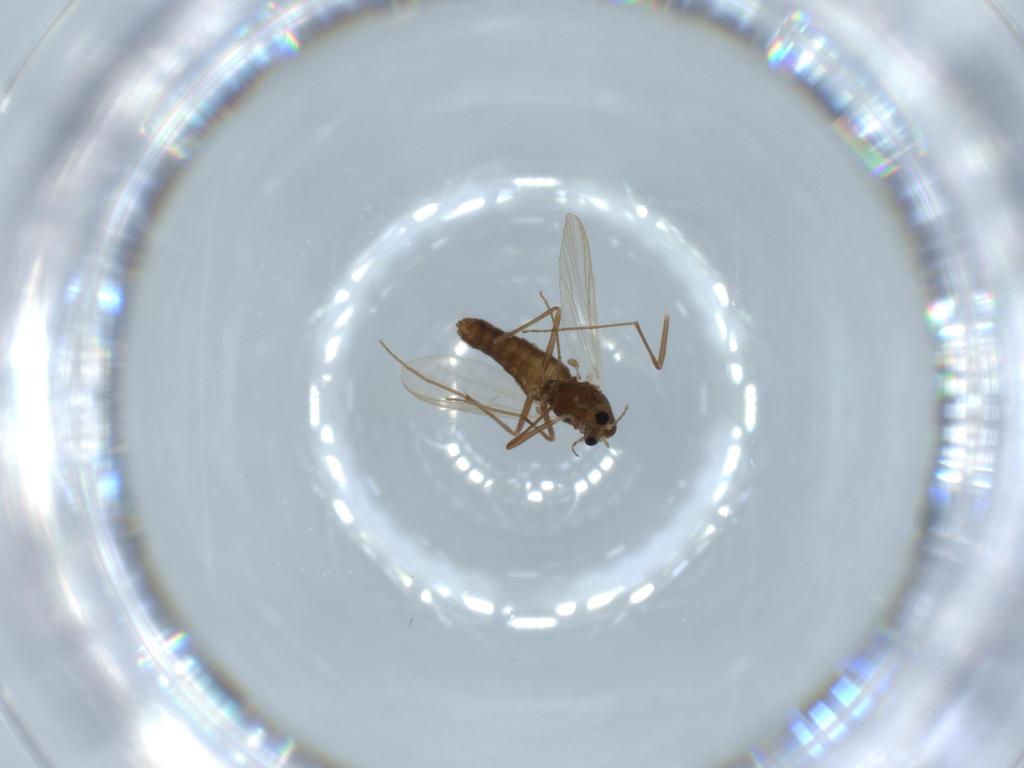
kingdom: Animalia
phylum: Arthropoda
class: Insecta
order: Diptera
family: Chironomidae
